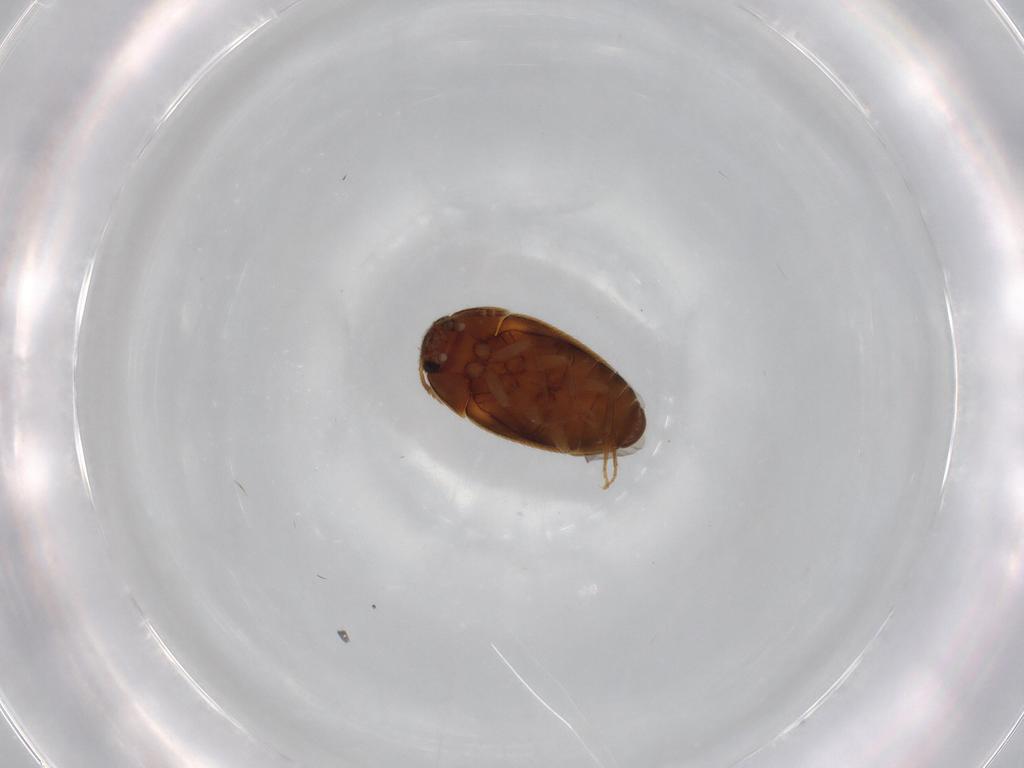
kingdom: Animalia
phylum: Arthropoda
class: Insecta
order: Coleoptera
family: Mycetophagidae
